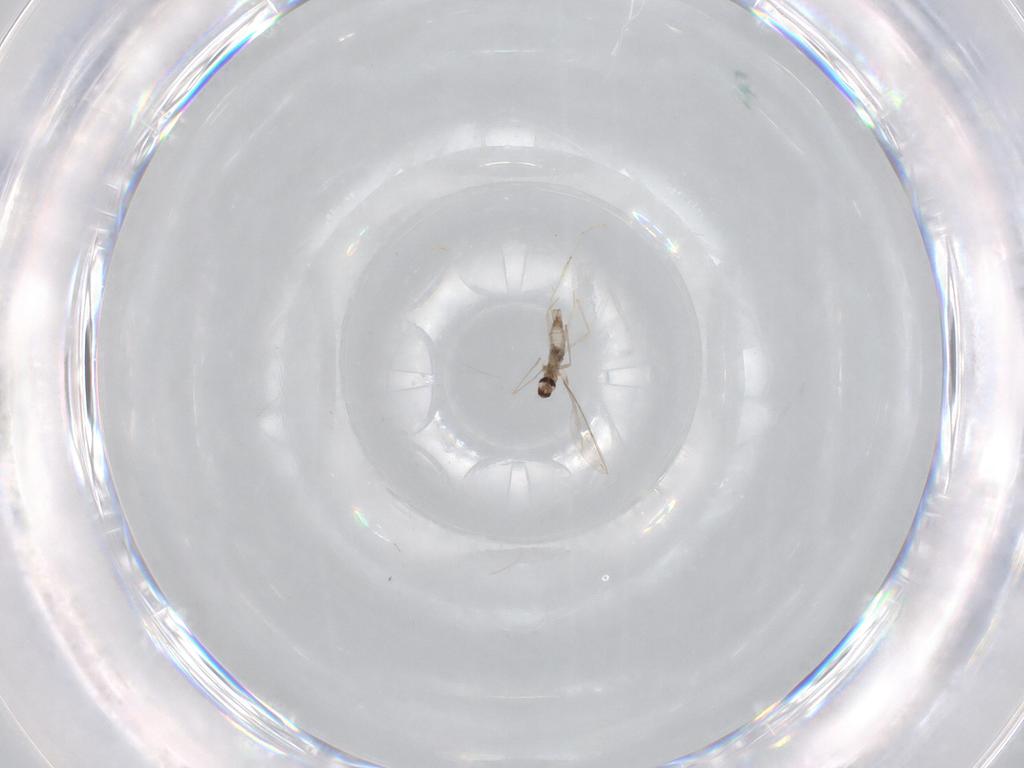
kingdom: Animalia
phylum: Arthropoda
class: Insecta
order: Diptera
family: Cecidomyiidae
